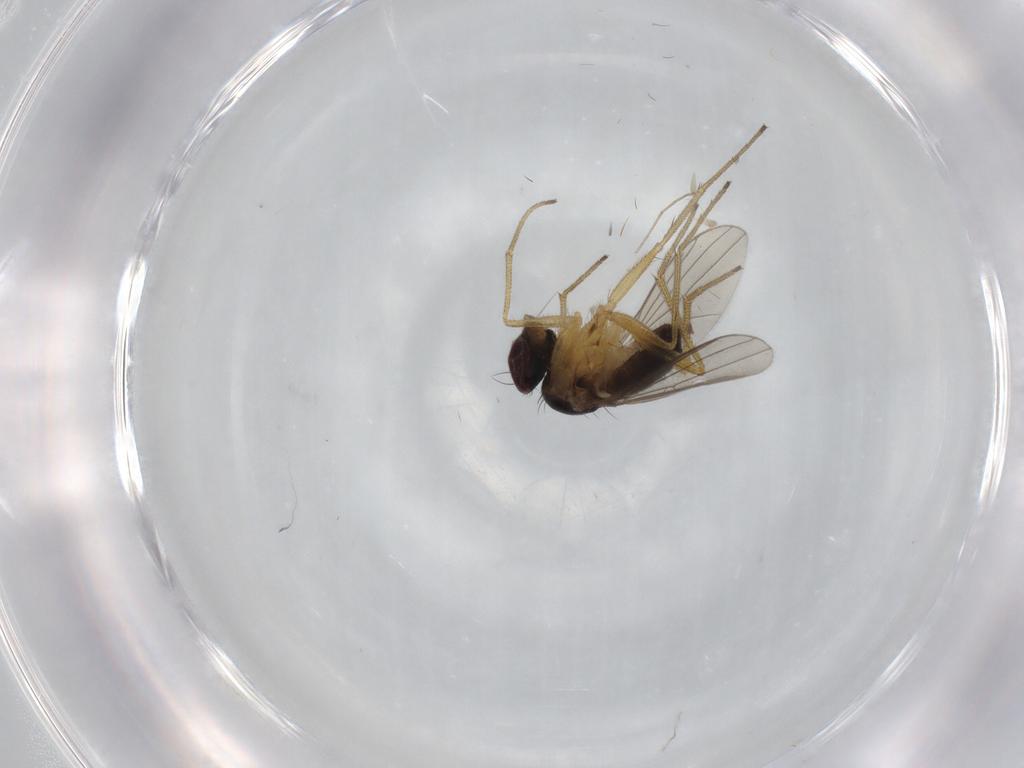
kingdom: Animalia
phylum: Arthropoda
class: Insecta
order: Diptera
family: Dolichopodidae
